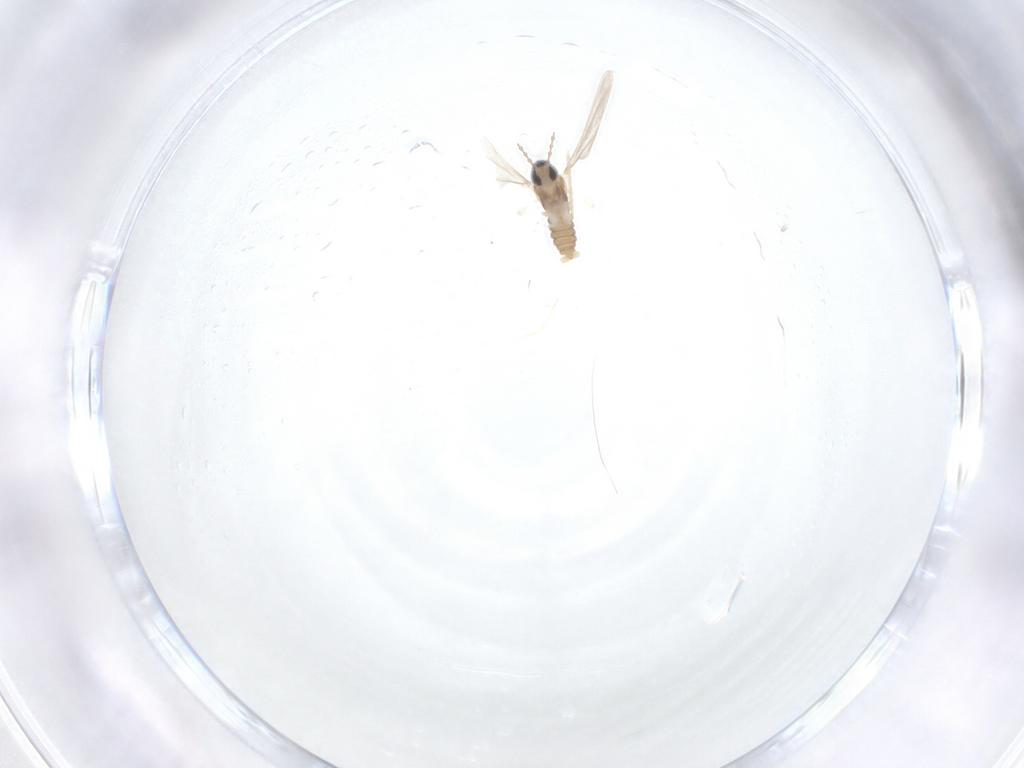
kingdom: Animalia
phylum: Arthropoda
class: Insecta
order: Diptera
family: Cecidomyiidae
